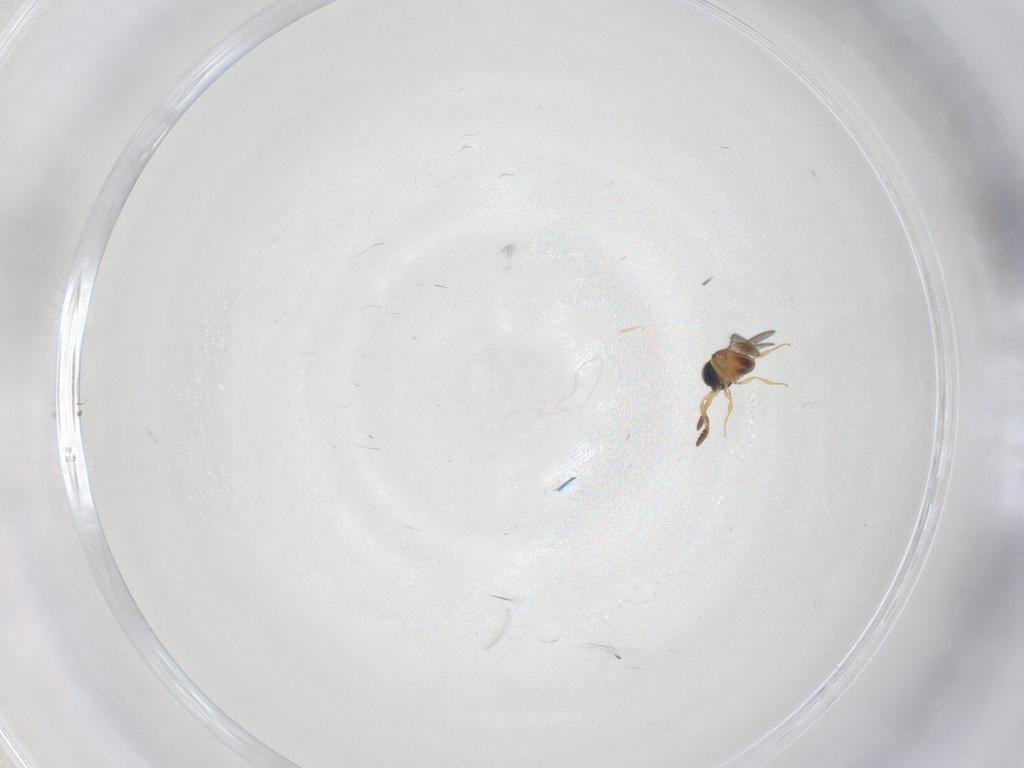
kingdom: Animalia
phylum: Arthropoda
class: Insecta
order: Hymenoptera
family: Scelionidae
